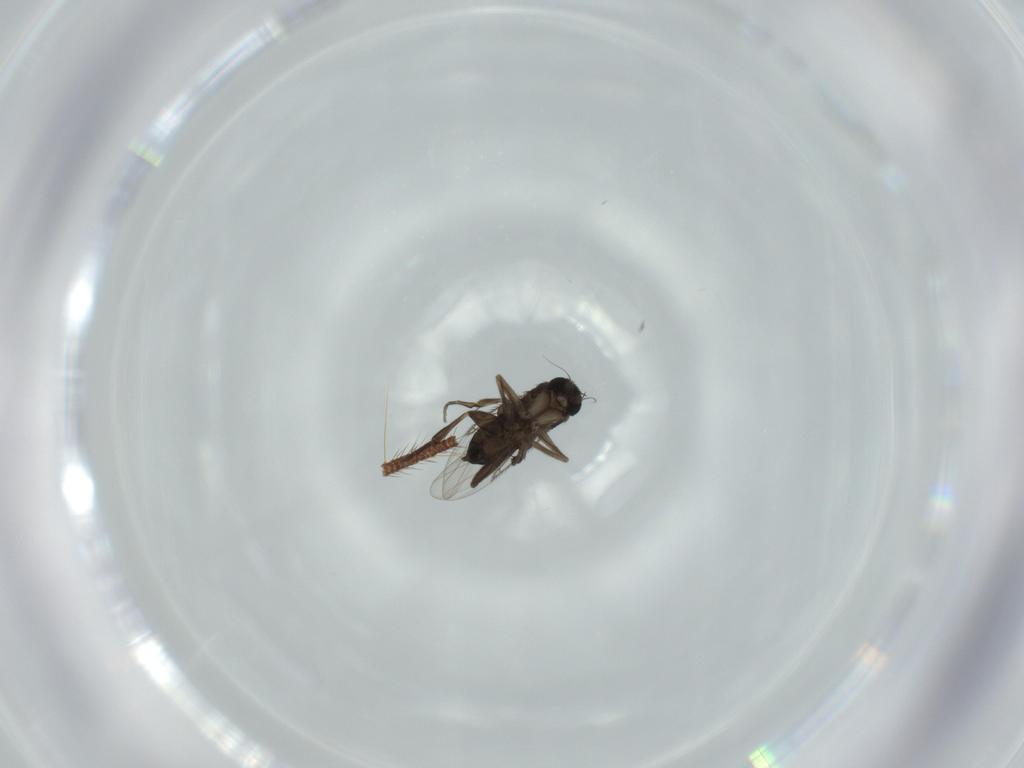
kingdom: Animalia
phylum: Arthropoda
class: Insecta
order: Diptera
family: Phoridae
